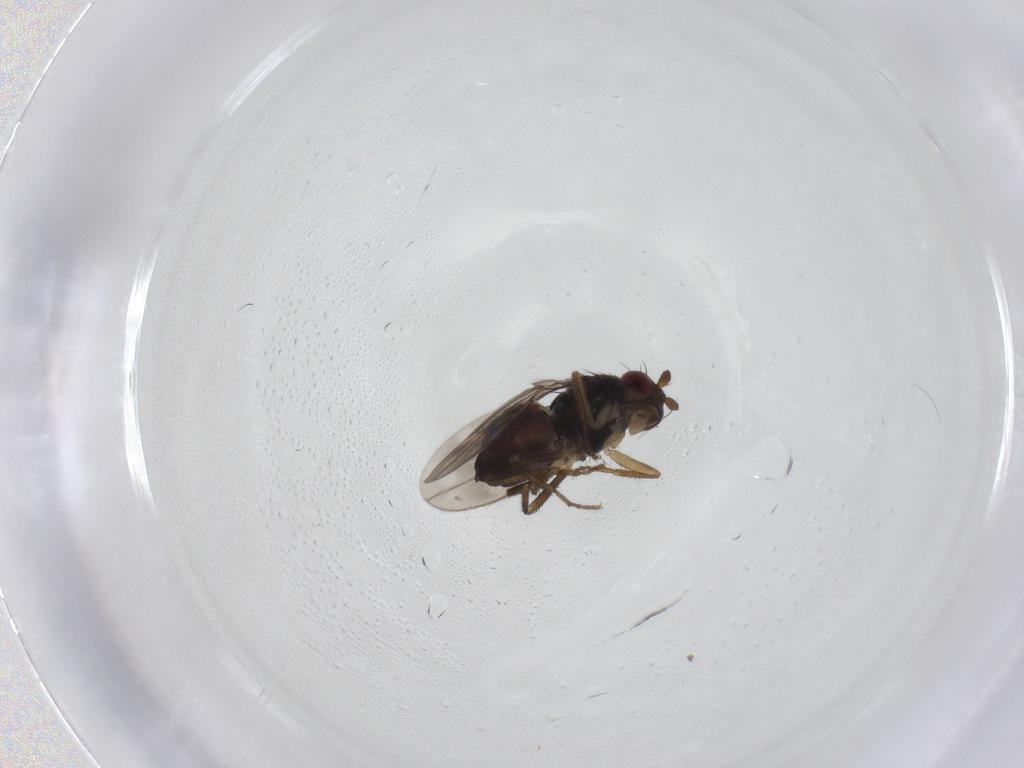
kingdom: Animalia
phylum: Arthropoda
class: Insecta
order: Diptera
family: Sphaeroceridae
